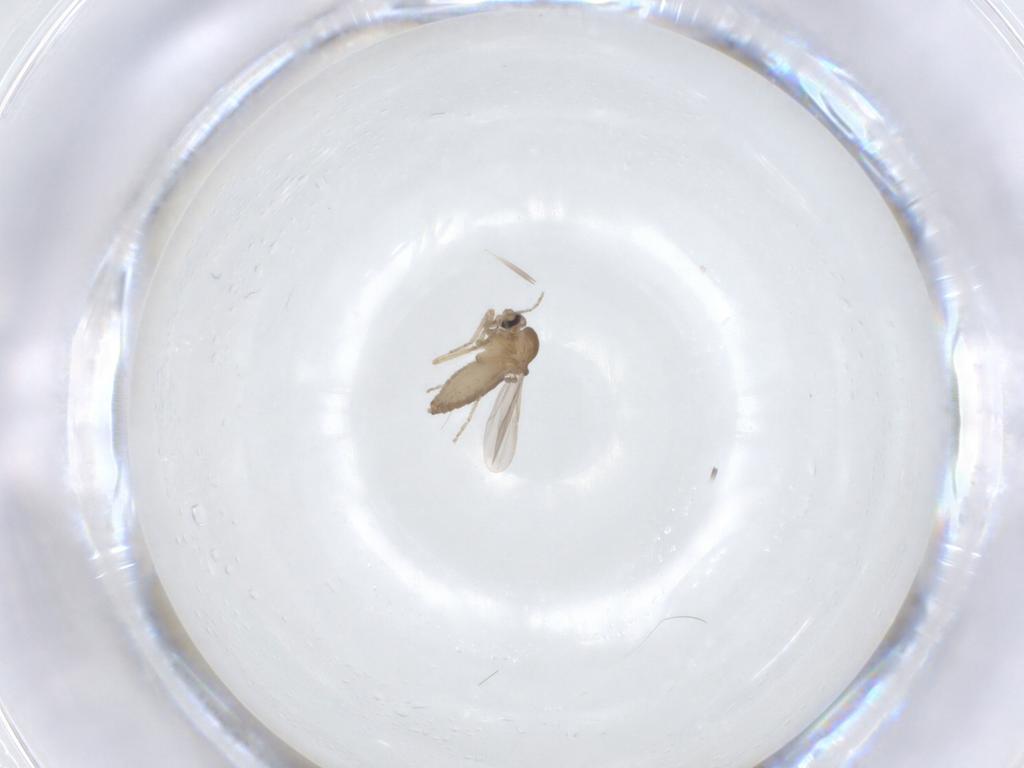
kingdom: Animalia
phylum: Arthropoda
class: Insecta
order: Diptera
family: Ceratopogonidae
